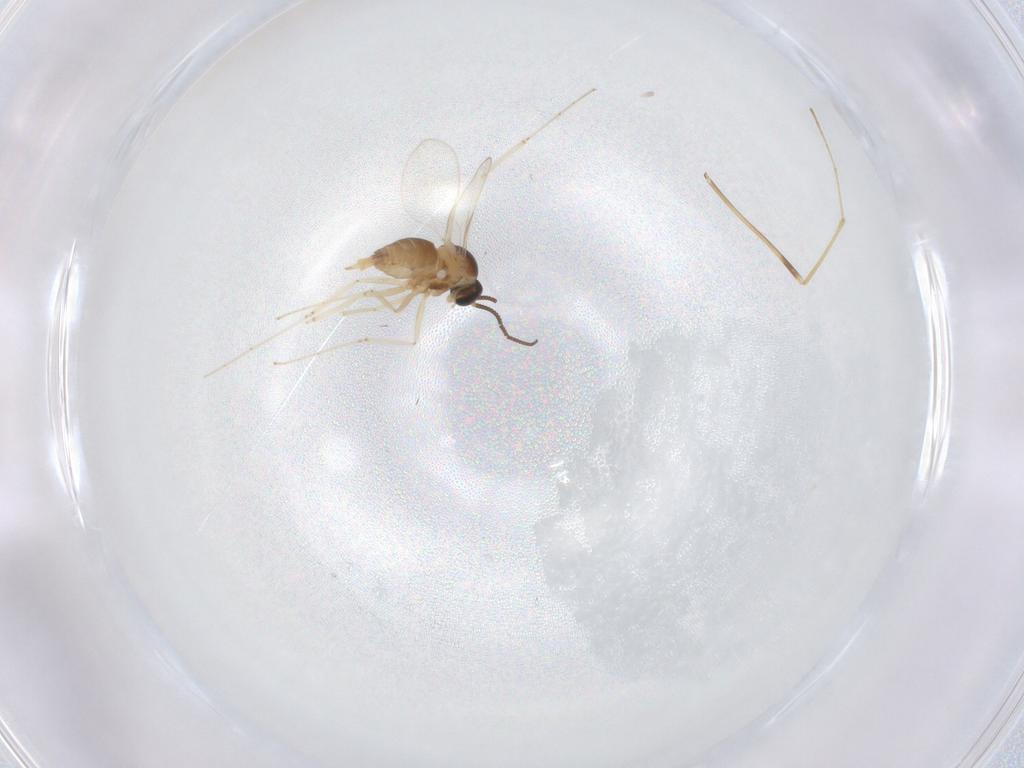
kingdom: Animalia
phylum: Arthropoda
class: Insecta
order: Diptera
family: Cecidomyiidae
